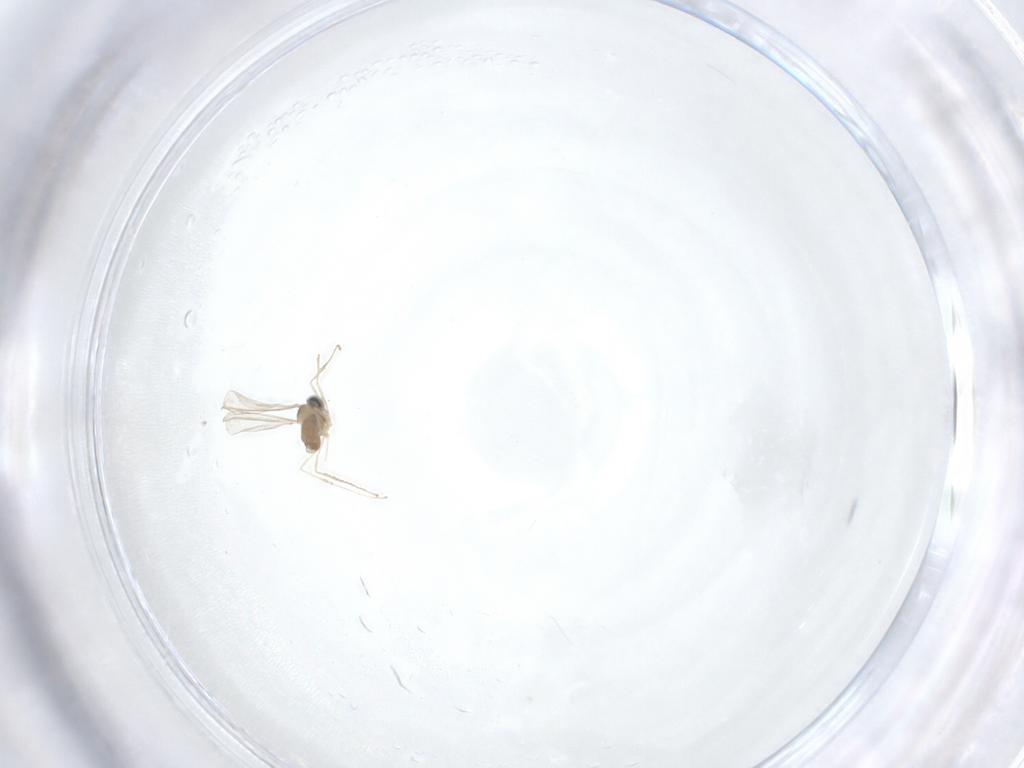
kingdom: Animalia
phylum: Arthropoda
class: Insecta
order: Diptera
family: Cecidomyiidae
